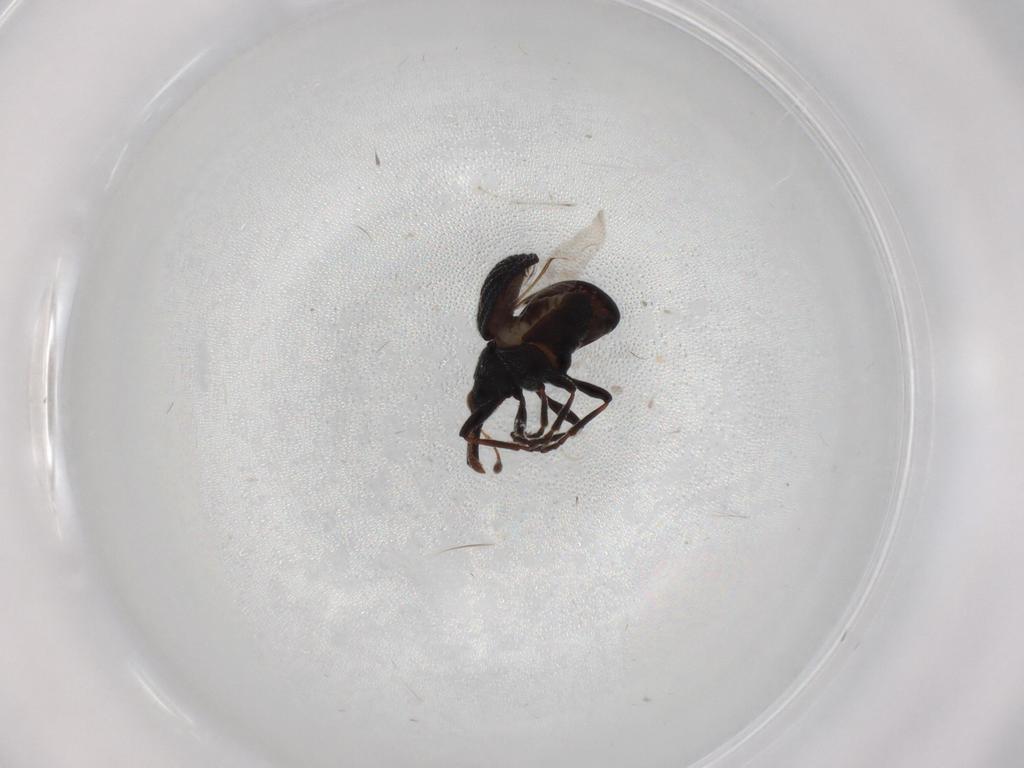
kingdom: Animalia
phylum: Arthropoda
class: Insecta
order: Coleoptera
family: Brentidae
